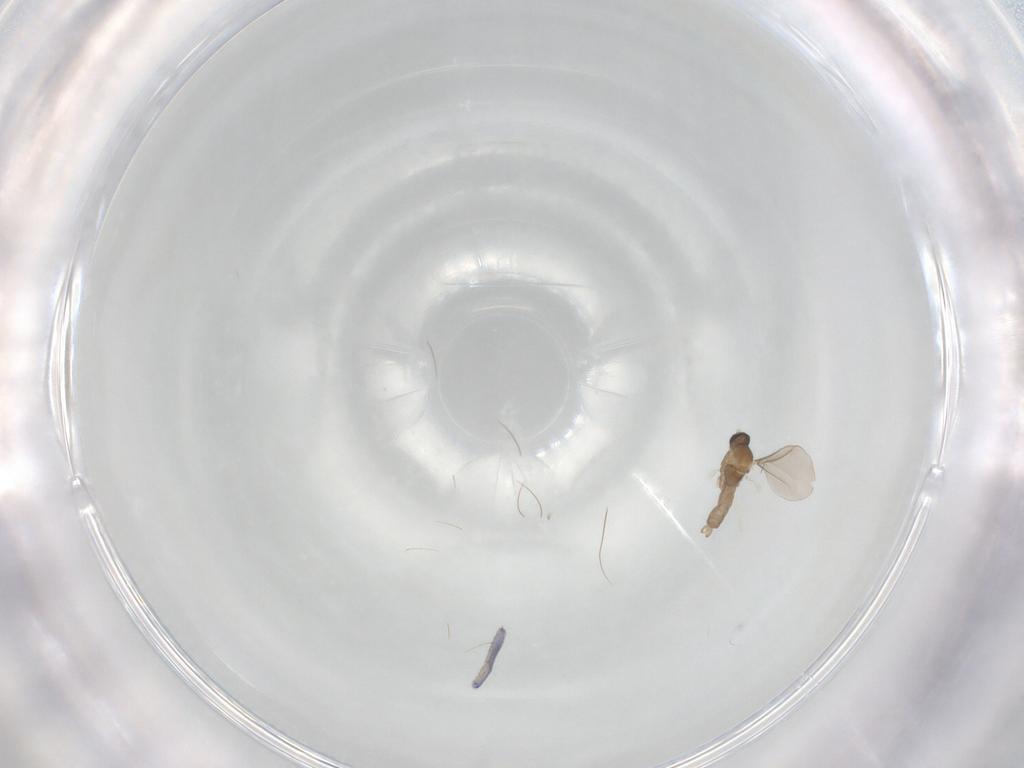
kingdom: Animalia
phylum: Arthropoda
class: Insecta
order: Diptera
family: Cecidomyiidae
